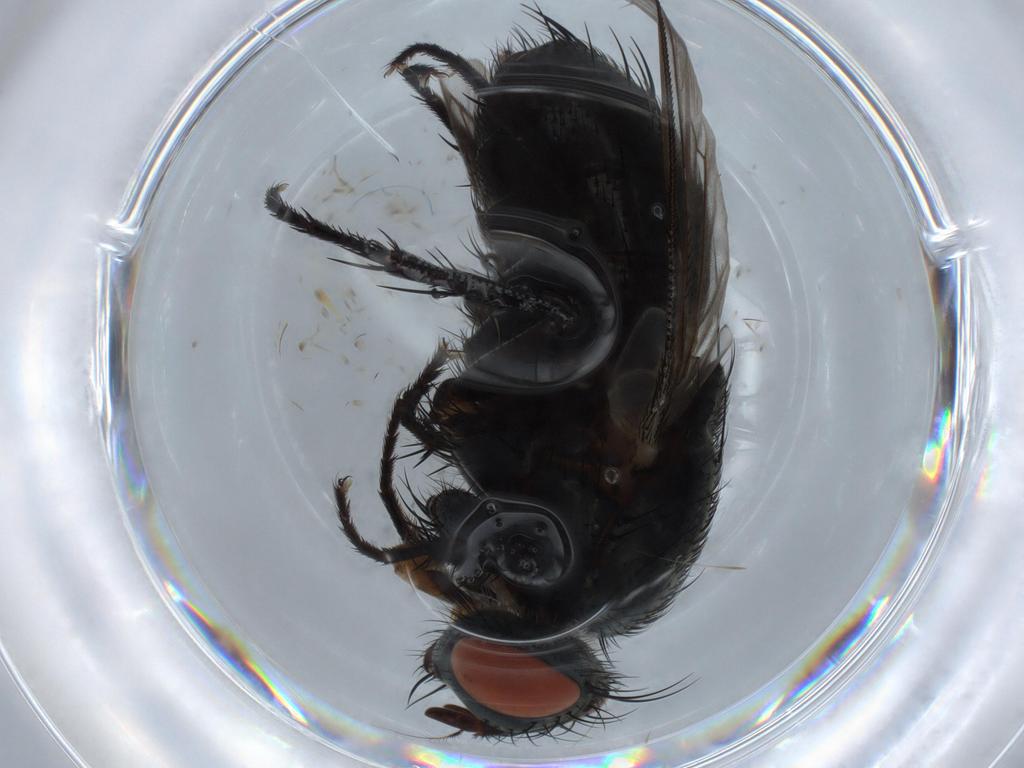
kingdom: Animalia
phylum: Arthropoda
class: Insecta
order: Diptera
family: Sarcophagidae
